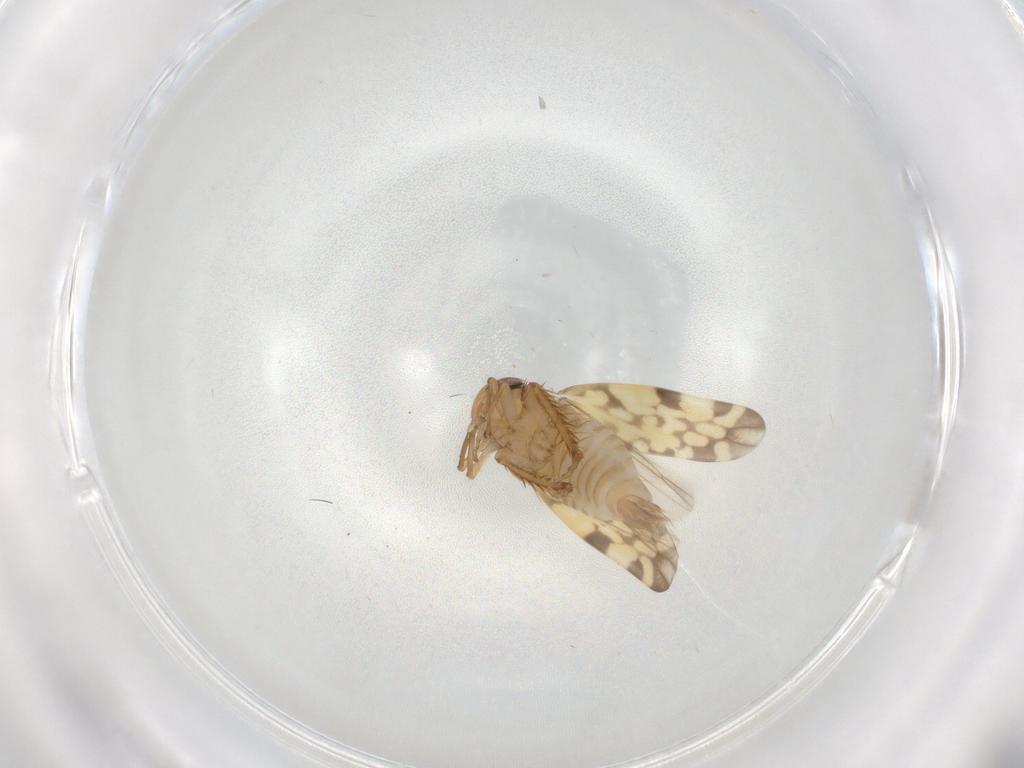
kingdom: Animalia
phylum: Arthropoda
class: Insecta
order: Hemiptera
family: Cicadellidae
